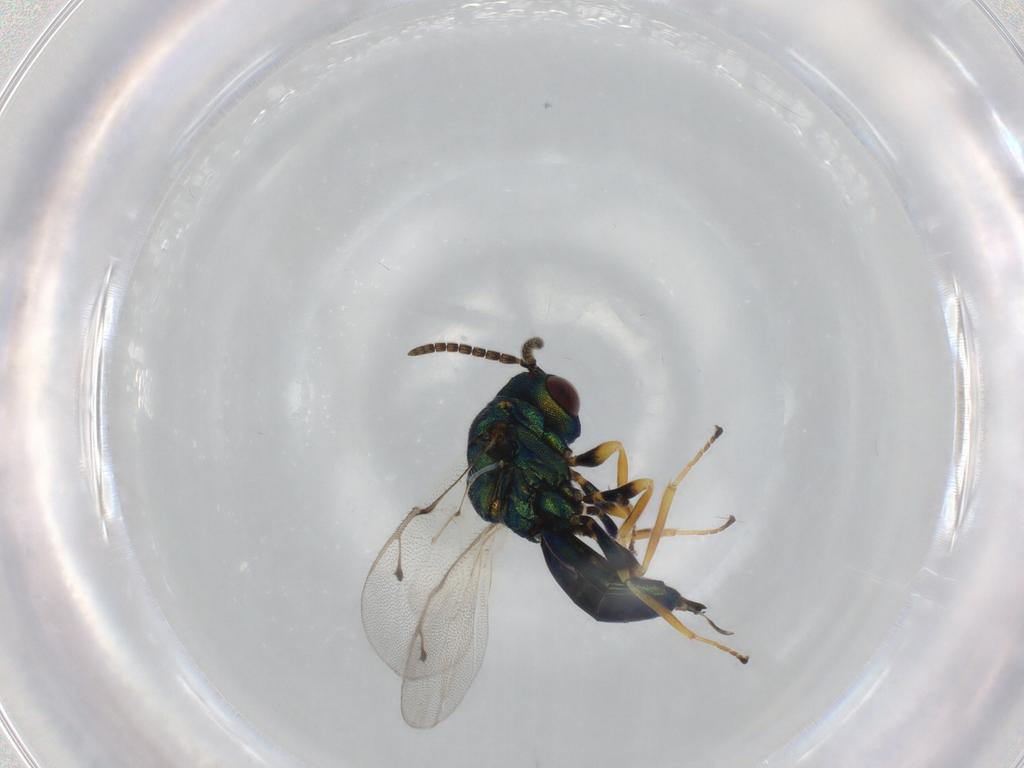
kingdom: Animalia
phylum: Arthropoda
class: Insecta
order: Hymenoptera
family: Pteromalidae
